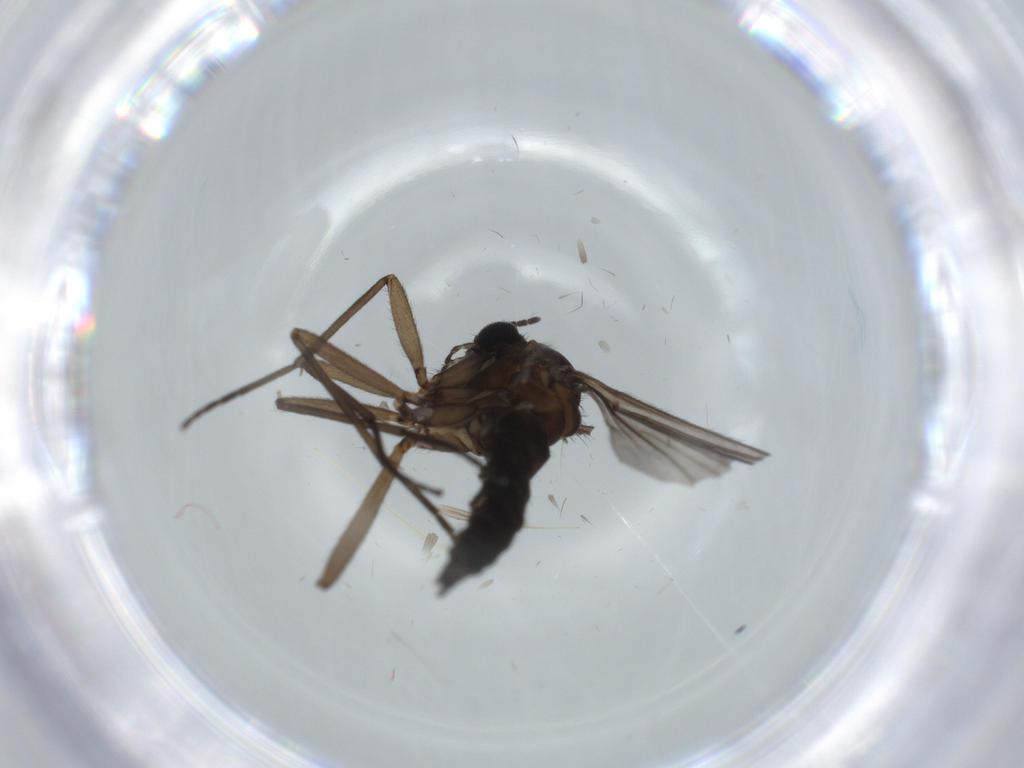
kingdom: Animalia
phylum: Arthropoda
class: Insecta
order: Diptera
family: Sciaridae
